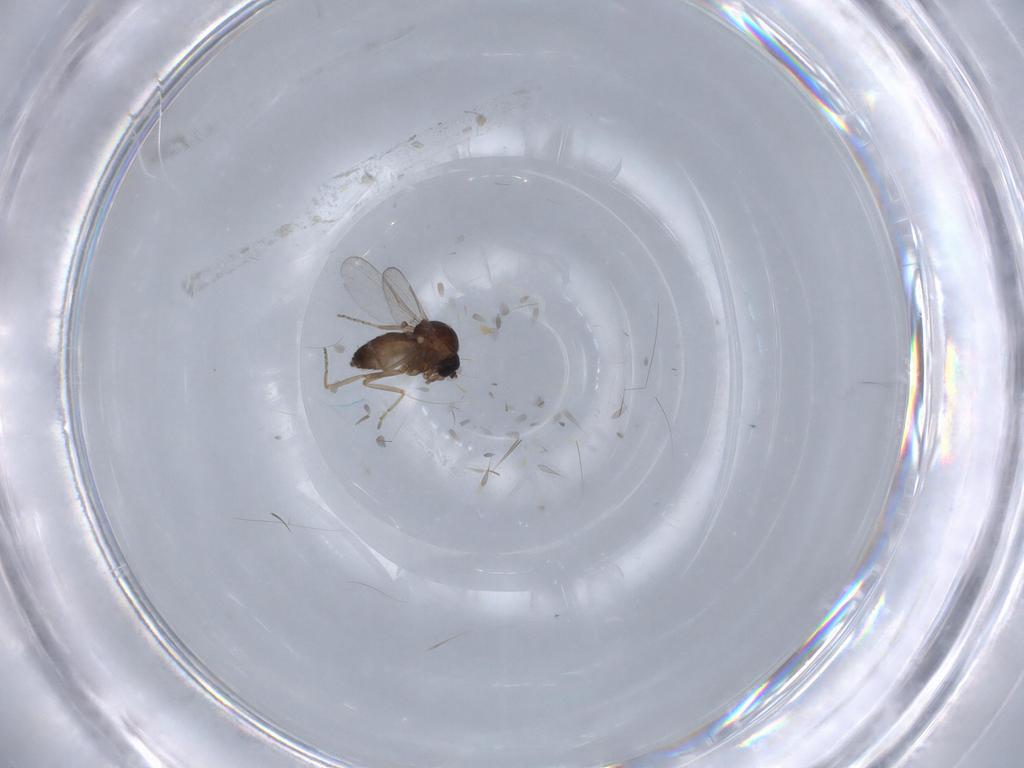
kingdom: Animalia
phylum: Arthropoda
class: Insecta
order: Diptera
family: Ceratopogonidae
